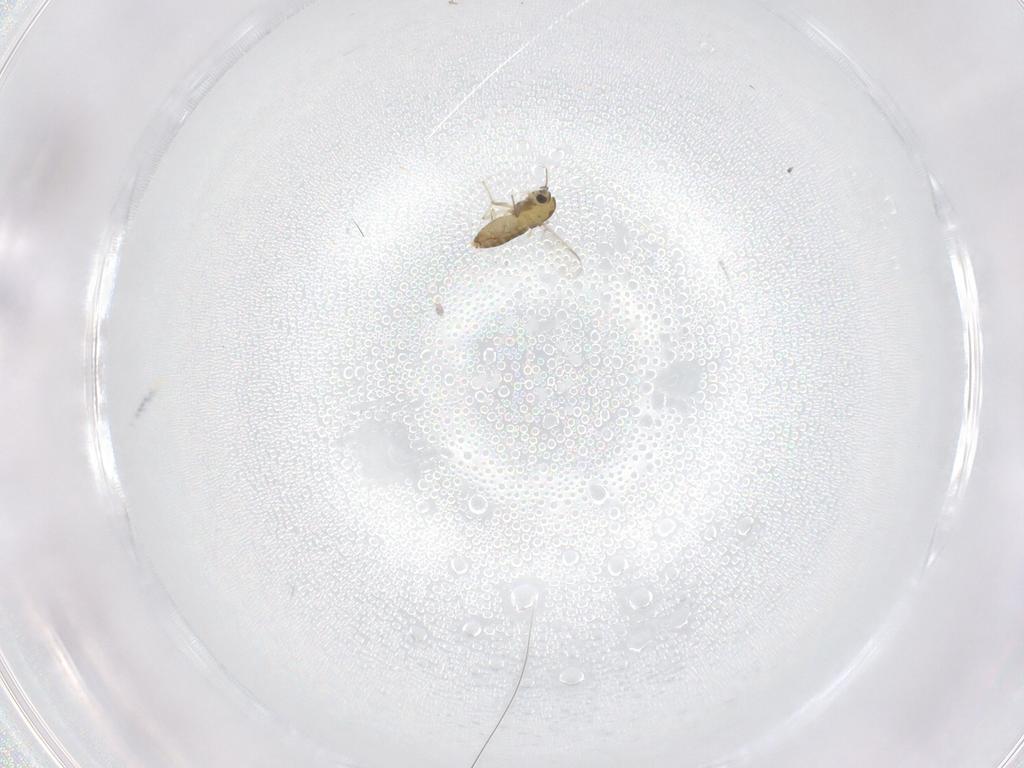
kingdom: Animalia
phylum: Arthropoda
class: Insecta
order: Diptera
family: Chironomidae
